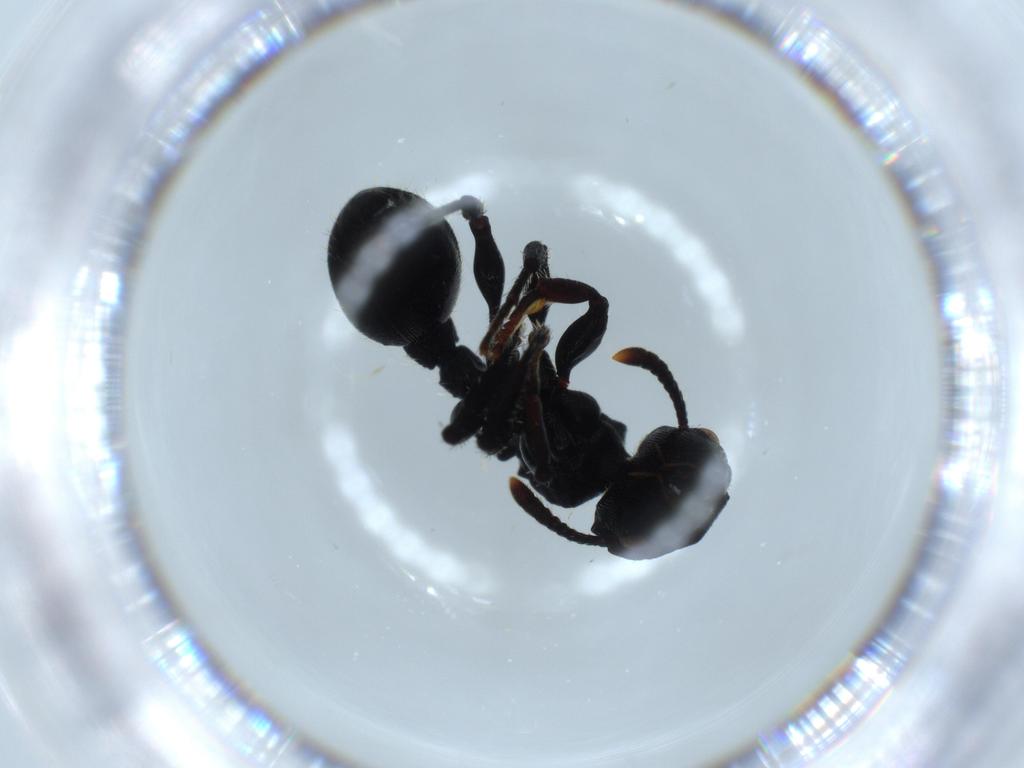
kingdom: Animalia
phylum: Arthropoda
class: Insecta
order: Hymenoptera
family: Formicidae
